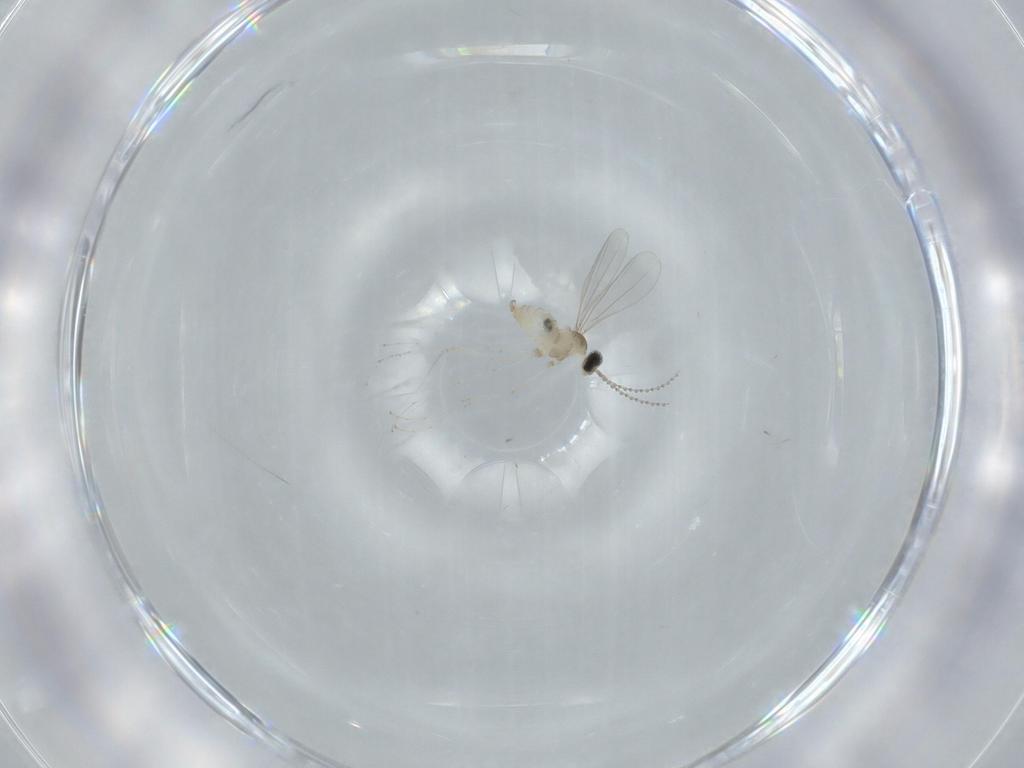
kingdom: Animalia
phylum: Arthropoda
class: Insecta
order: Diptera
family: Cecidomyiidae
